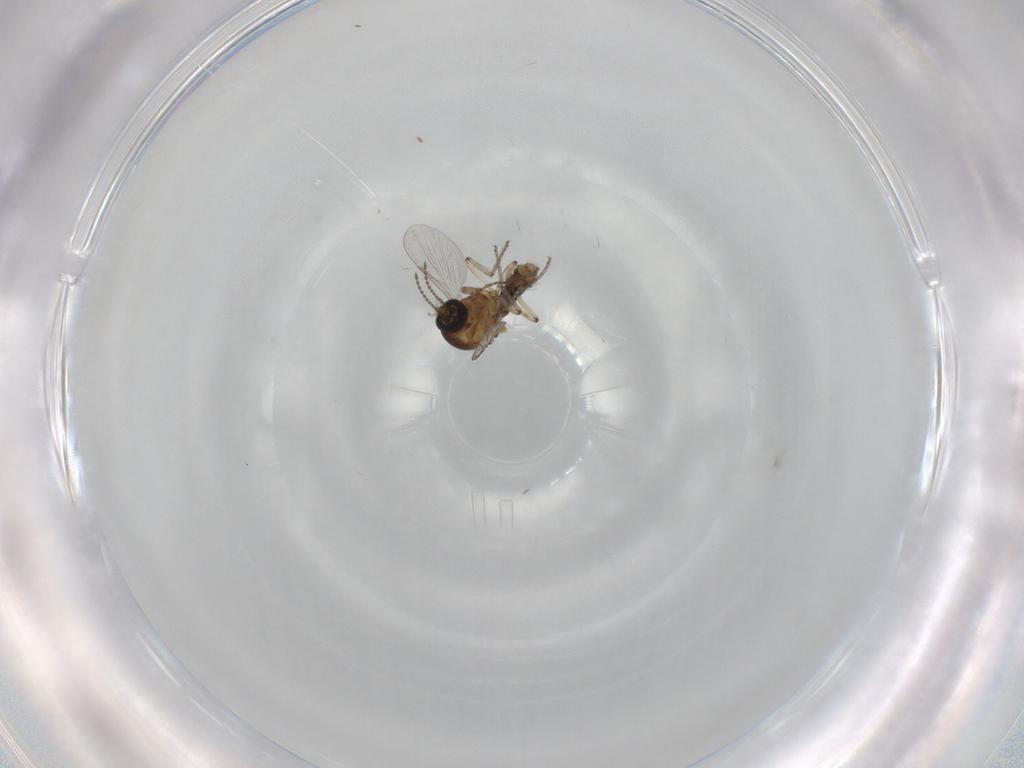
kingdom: Animalia
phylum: Arthropoda
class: Insecta
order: Diptera
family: Ceratopogonidae
